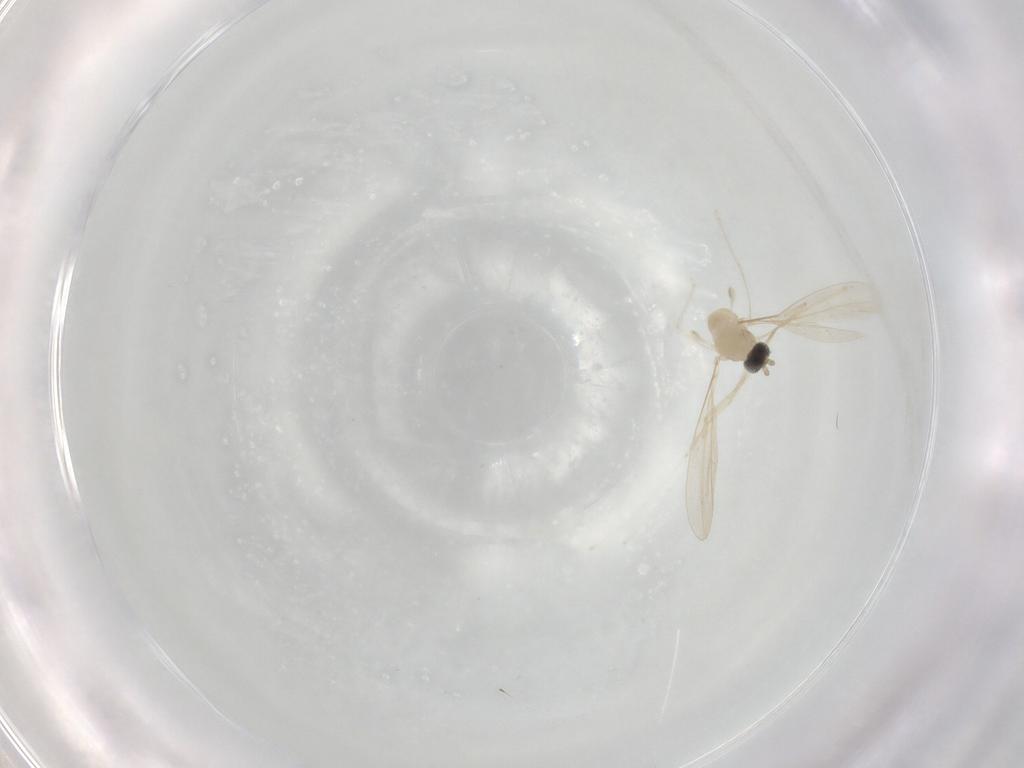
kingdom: Animalia
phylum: Arthropoda
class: Insecta
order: Diptera
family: Cecidomyiidae
